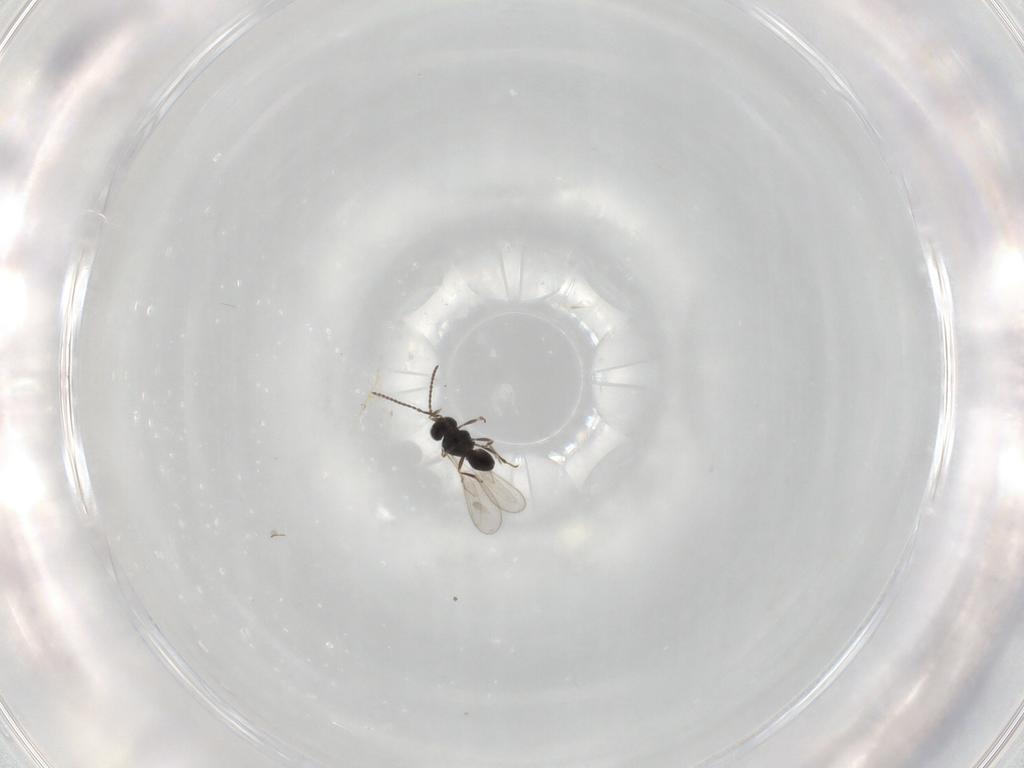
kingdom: Animalia
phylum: Arthropoda
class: Insecta
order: Hymenoptera
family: Scelionidae
